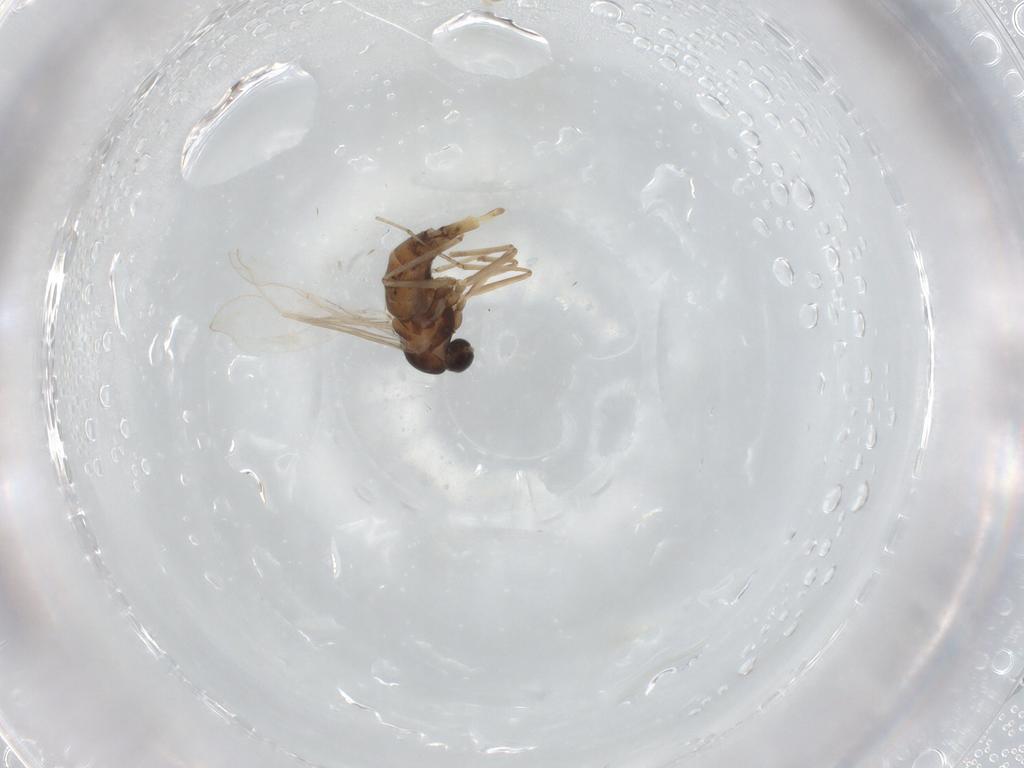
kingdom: Animalia
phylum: Arthropoda
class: Insecta
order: Diptera
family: Cecidomyiidae
